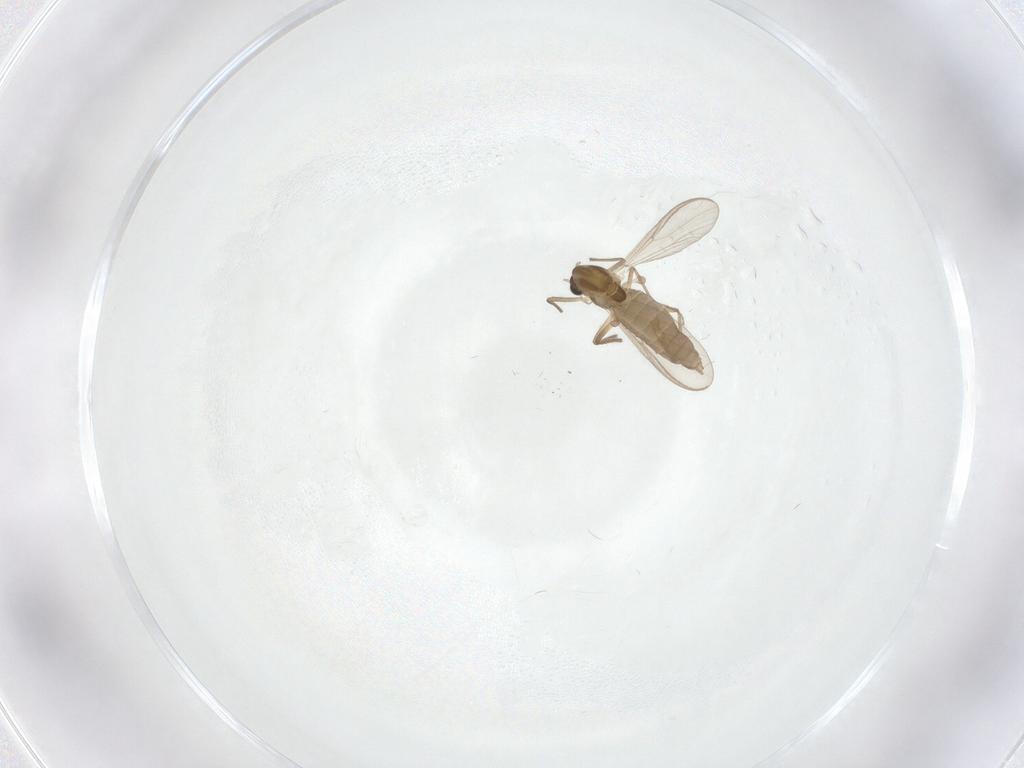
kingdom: Animalia
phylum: Arthropoda
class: Insecta
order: Diptera
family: Chironomidae
